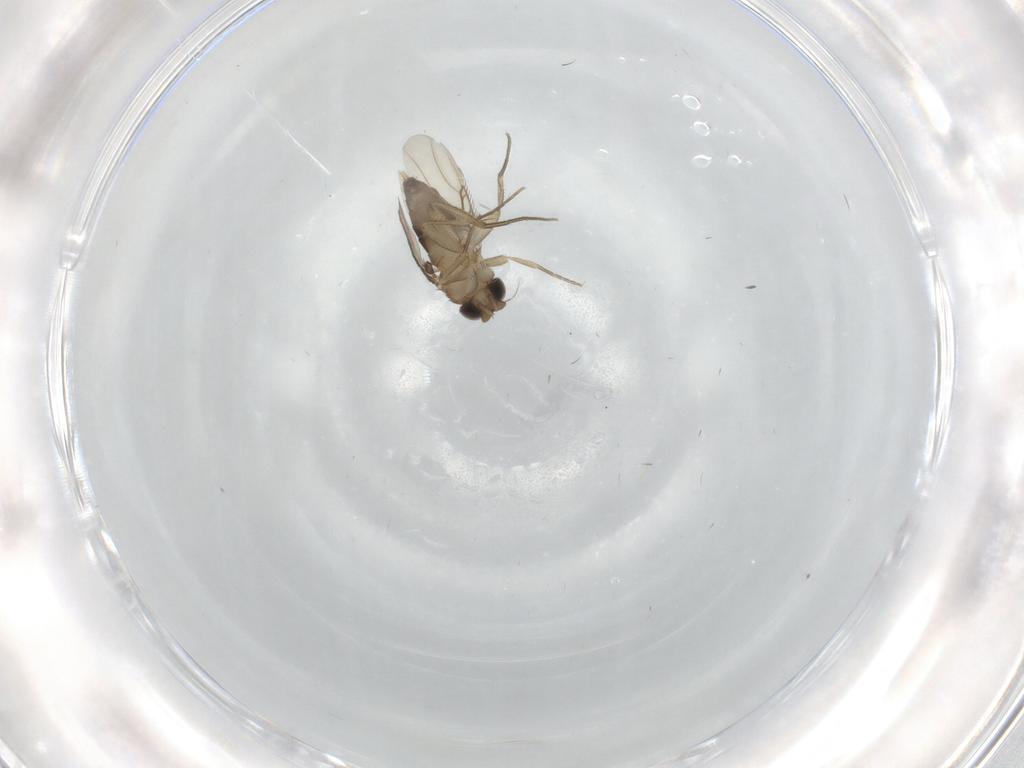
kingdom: Animalia
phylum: Arthropoda
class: Insecta
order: Diptera
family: Phoridae
